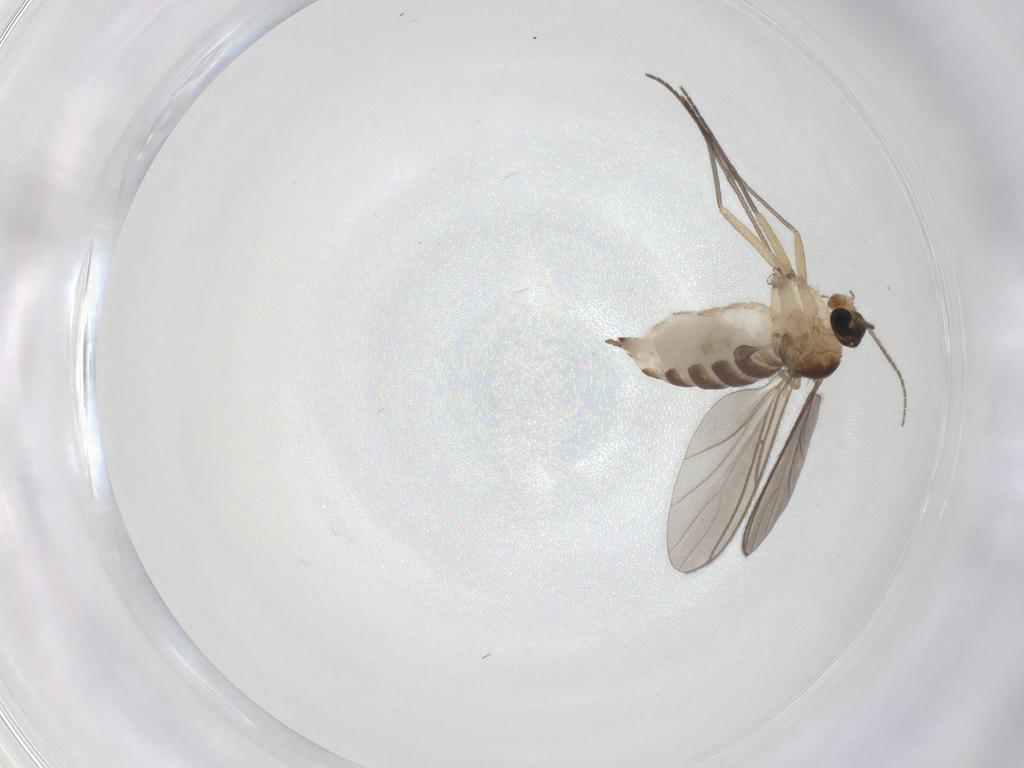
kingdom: Animalia
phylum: Arthropoda
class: Insecta
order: Diptera
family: Sciaridae
